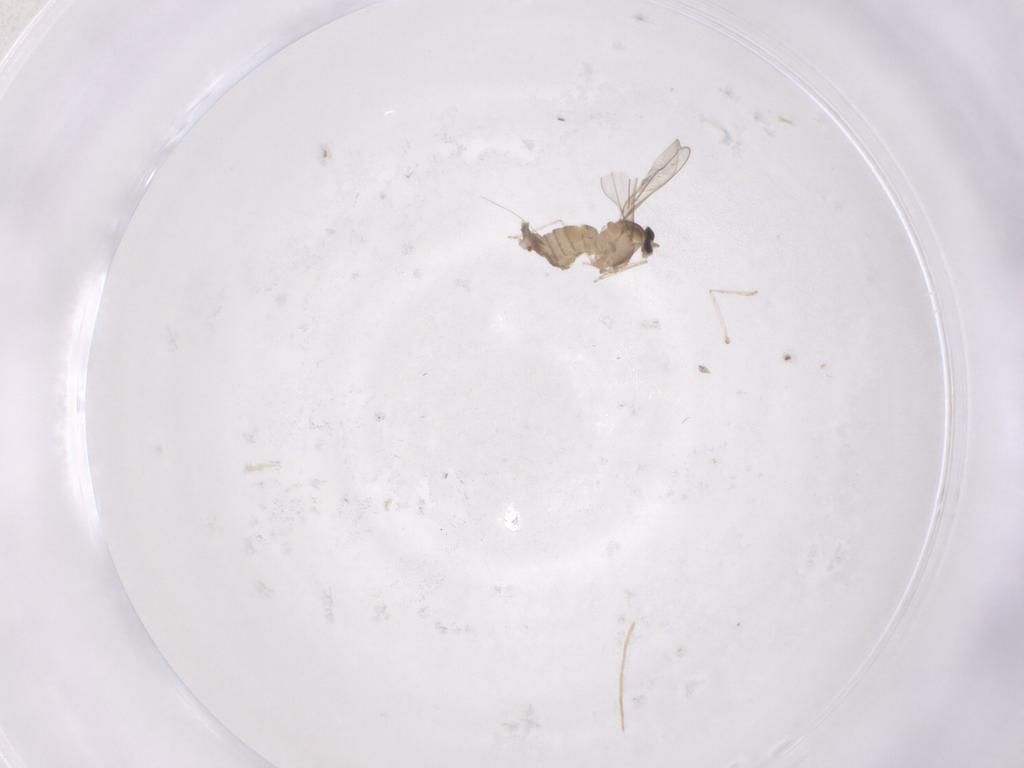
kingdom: Animalia
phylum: Arthropoda
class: Insecta
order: Diptera
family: Cecidomyiidae
